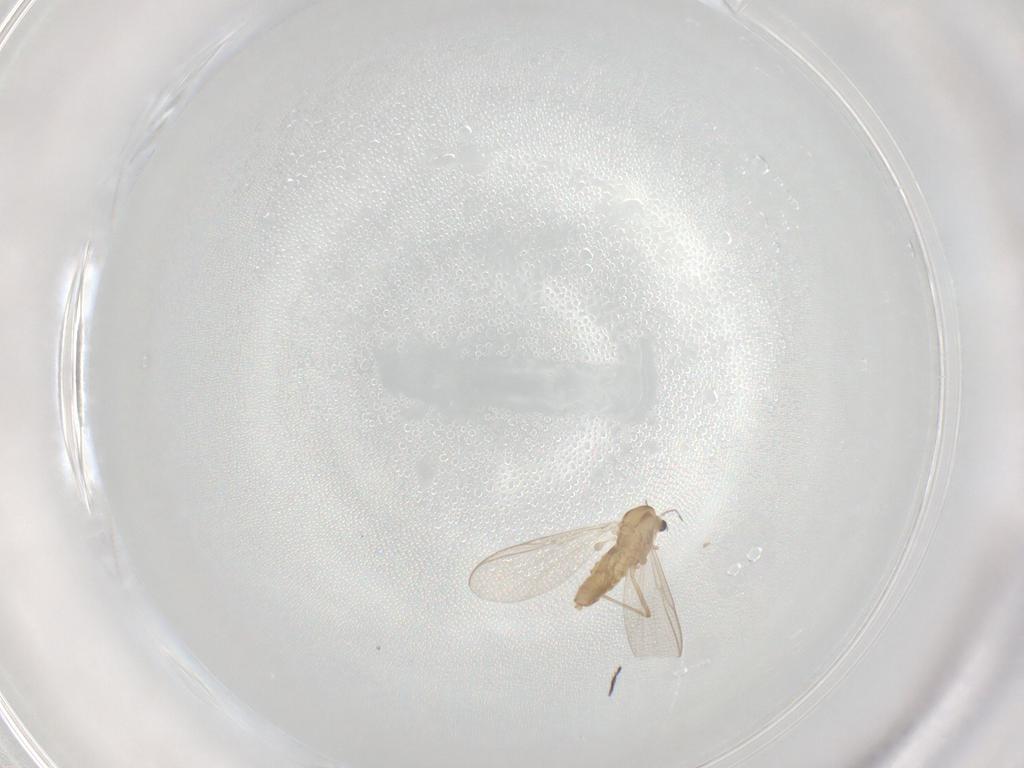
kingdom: Animalia
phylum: Arthropoda
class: Insecta
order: Diptera
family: Chironomidae
